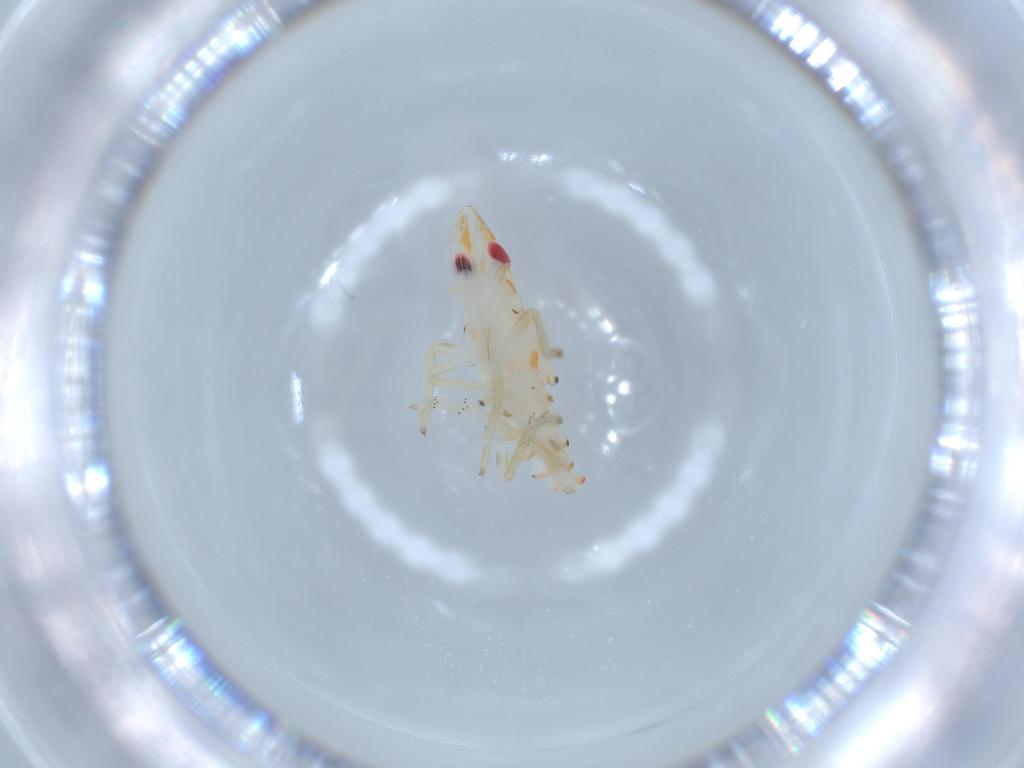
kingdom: Animalia
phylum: Arthropoda
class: Insecta
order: Hemiptera
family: Tropiduchidae
